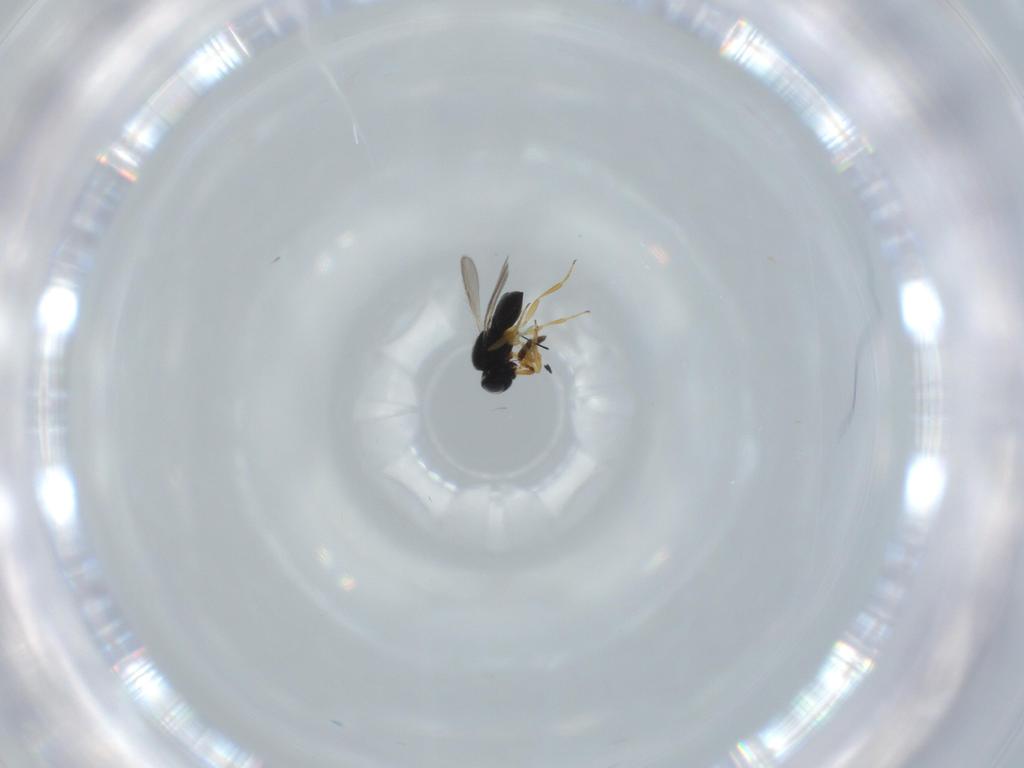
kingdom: Animalia
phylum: Arthropoda
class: Insecta
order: Hymenoptera
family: Scelionidae
